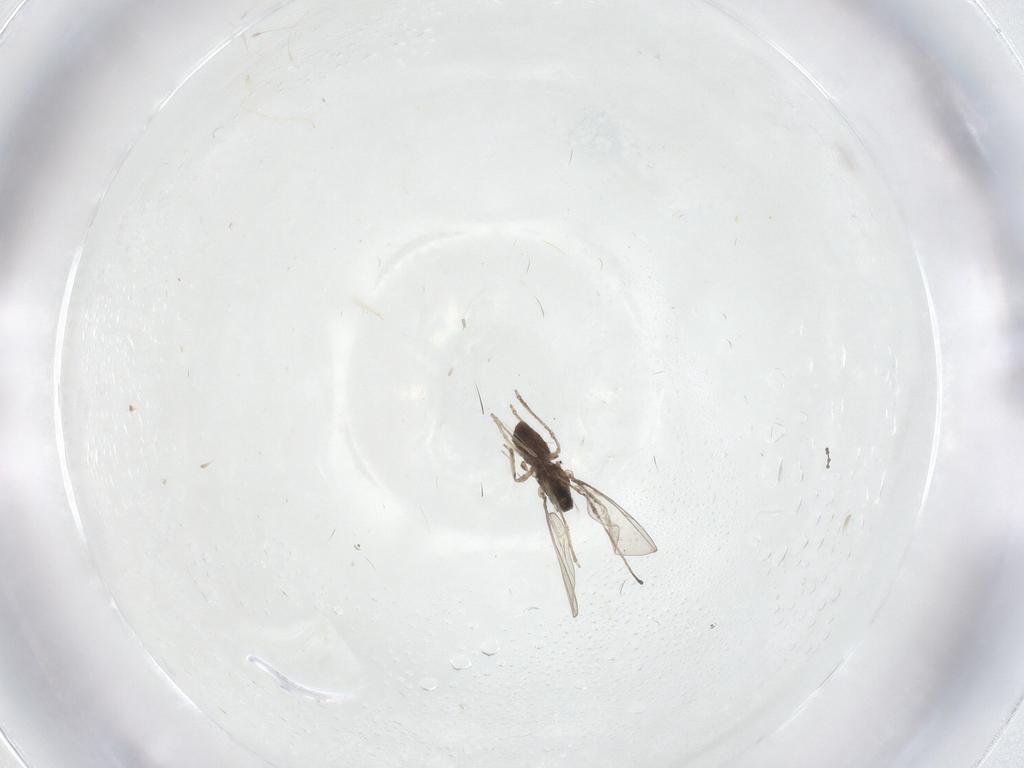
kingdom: Animalia
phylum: Arthropoda
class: Insecta
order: Diptera
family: Cecidomyiidae
